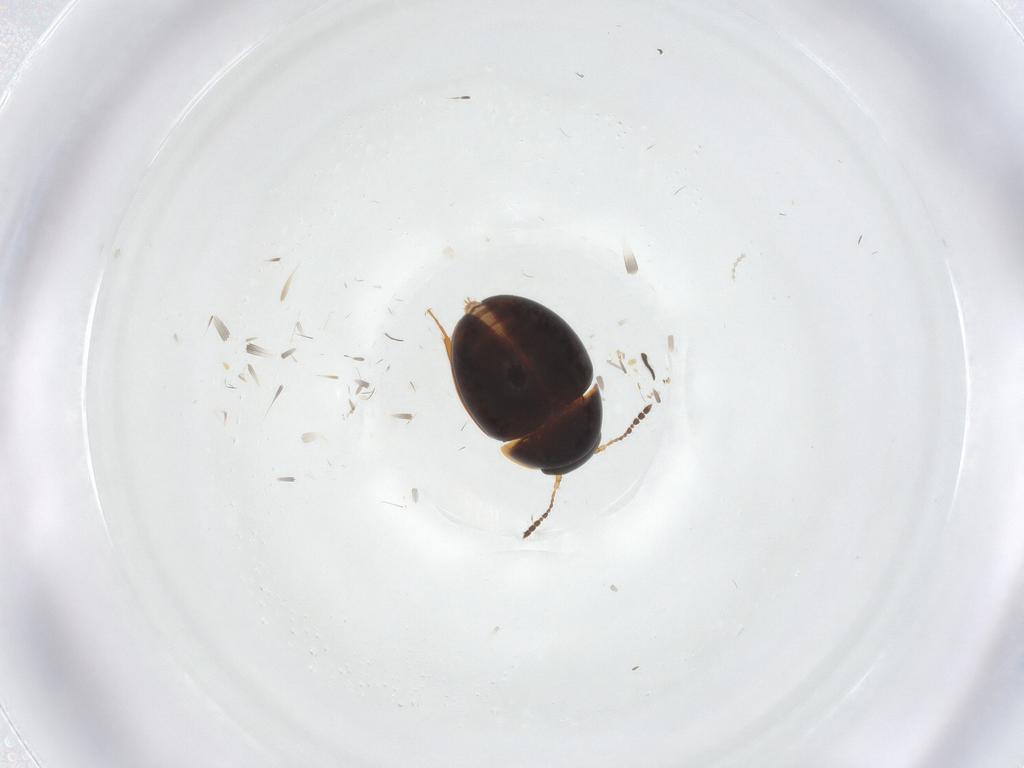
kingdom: Animalia
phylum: Arthropoda
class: Insecta
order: Coleoptera
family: Leiodidae
